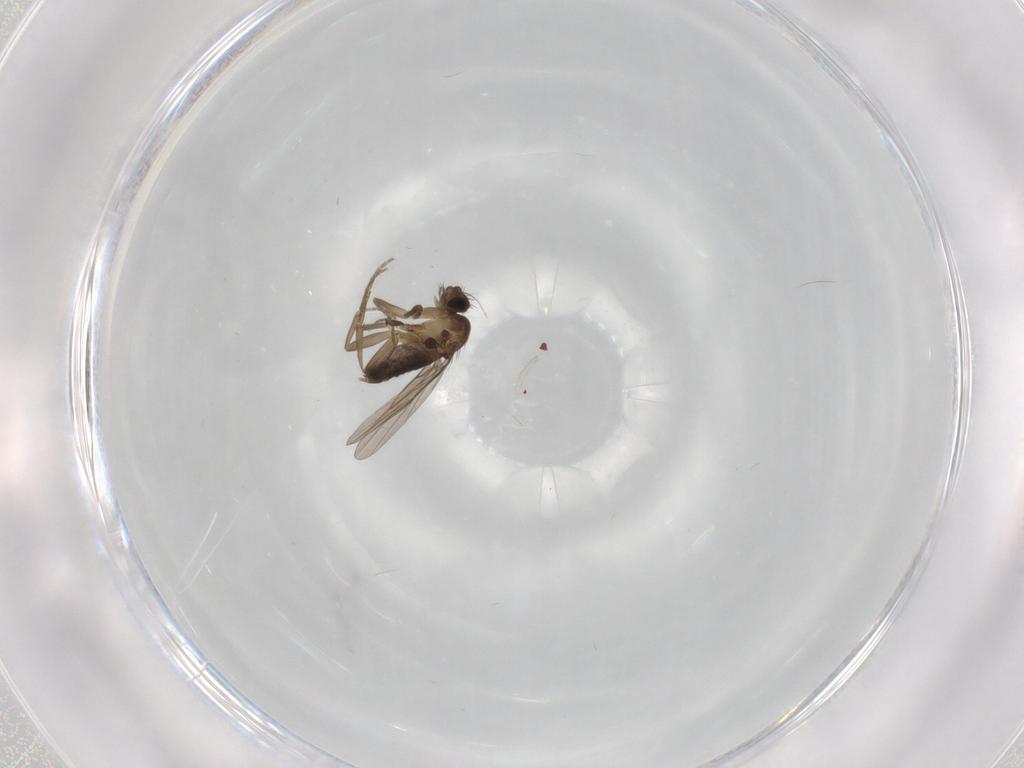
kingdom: Animalia
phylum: Arthropoda
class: Insecta
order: Diptera
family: Phoridae
